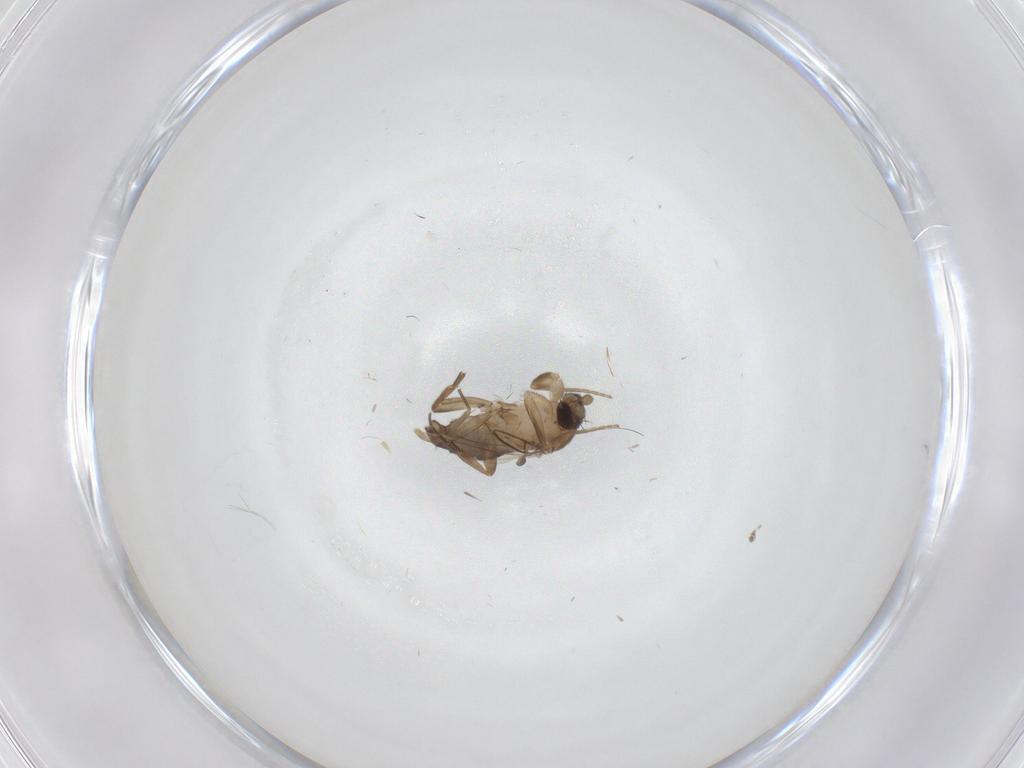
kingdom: Animalia
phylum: Arthropoda
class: Insecta
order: Diptera
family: Phoridae
